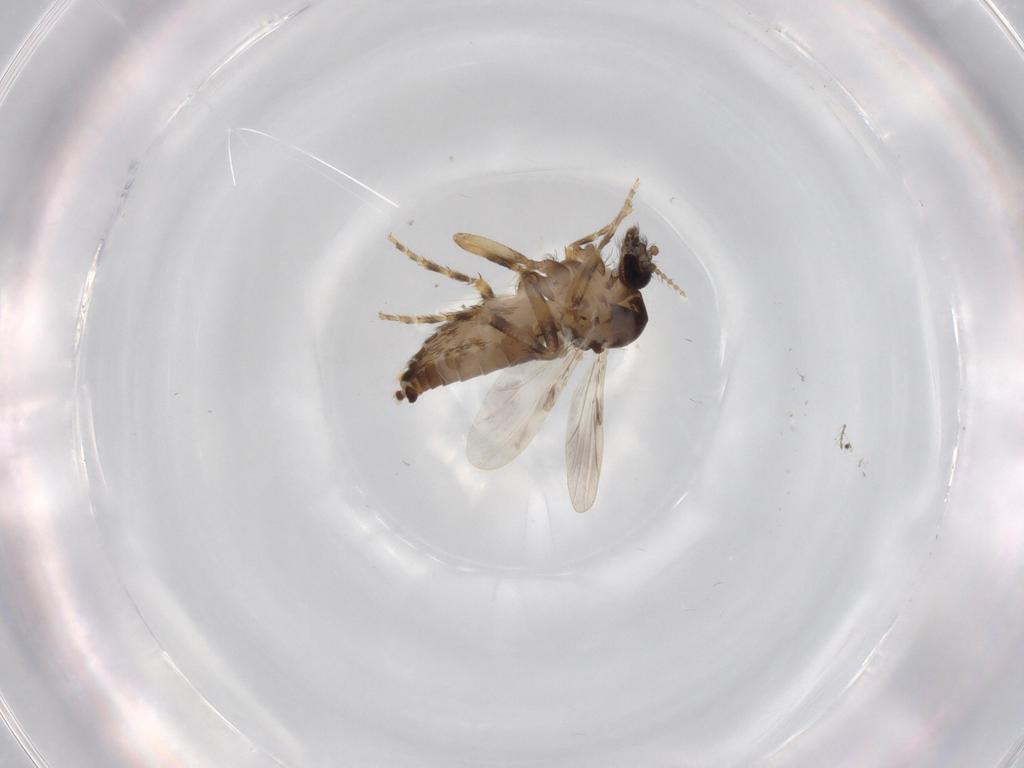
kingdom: Animalia
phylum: Arthropoda
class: Insecta
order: Diptera
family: Ceratopogonidae
